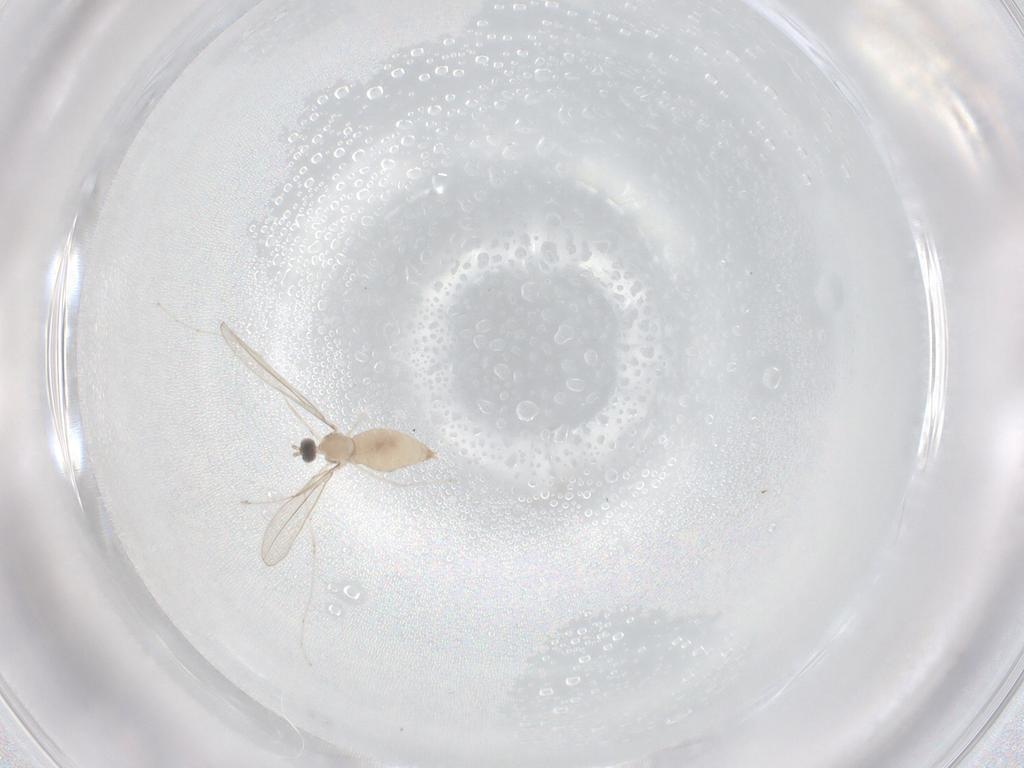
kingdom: Animalia
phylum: Arthropoda
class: Insecta
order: Diptera
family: Cecidomyiidae
